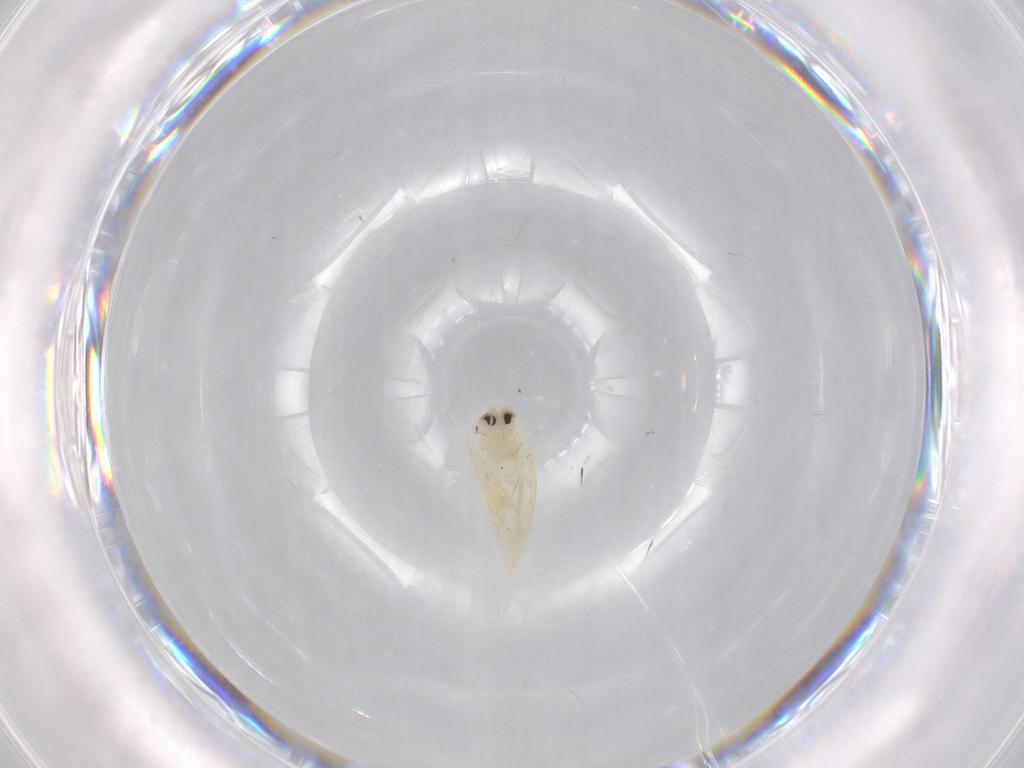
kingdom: Animalia
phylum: Arthropoda
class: Insecta
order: Hemiptera
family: Aleyrodidae
